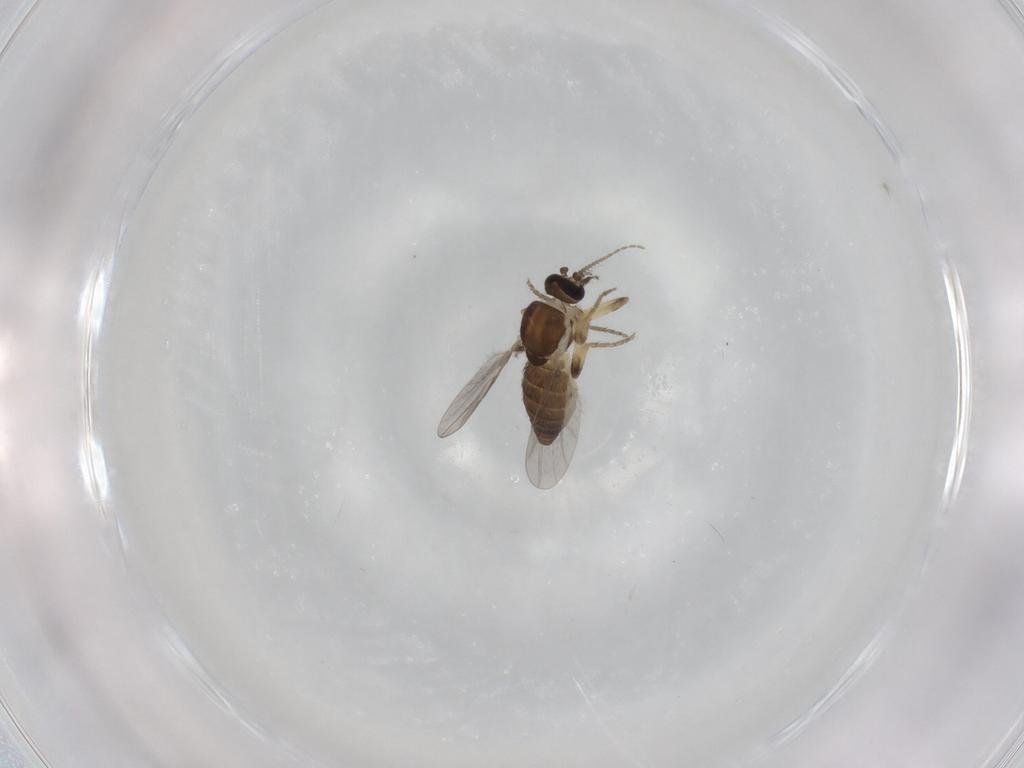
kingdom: Animalia
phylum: Arthropoda
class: Insecta
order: Diptera
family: Ceratopogonidae
